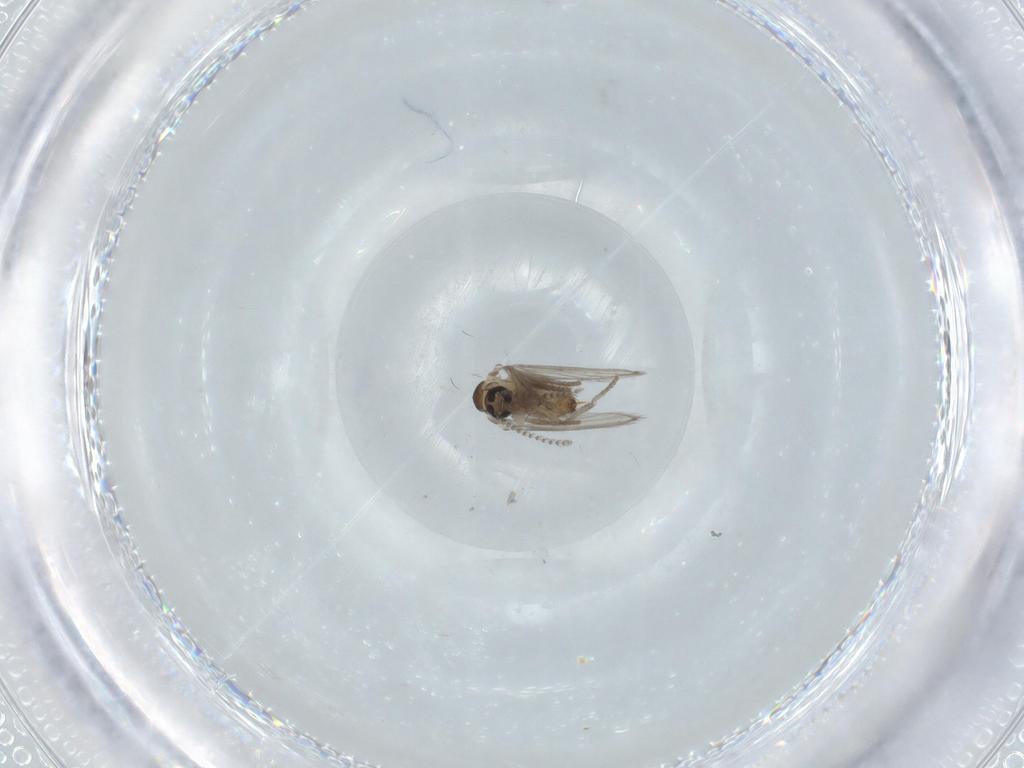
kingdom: Animalia
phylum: Arthropoda
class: Insecta
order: Diptera
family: Psychodidae
